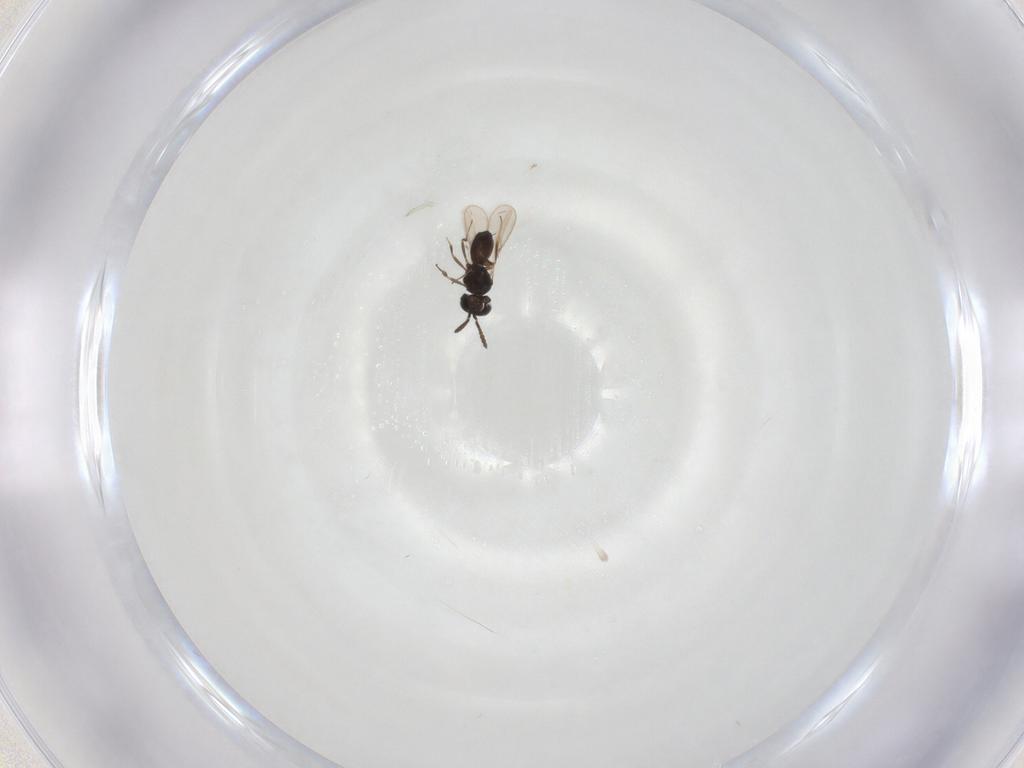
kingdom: Animalia
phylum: Arthropoda
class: Insecta
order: Hymenoptera
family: Scelionidae
